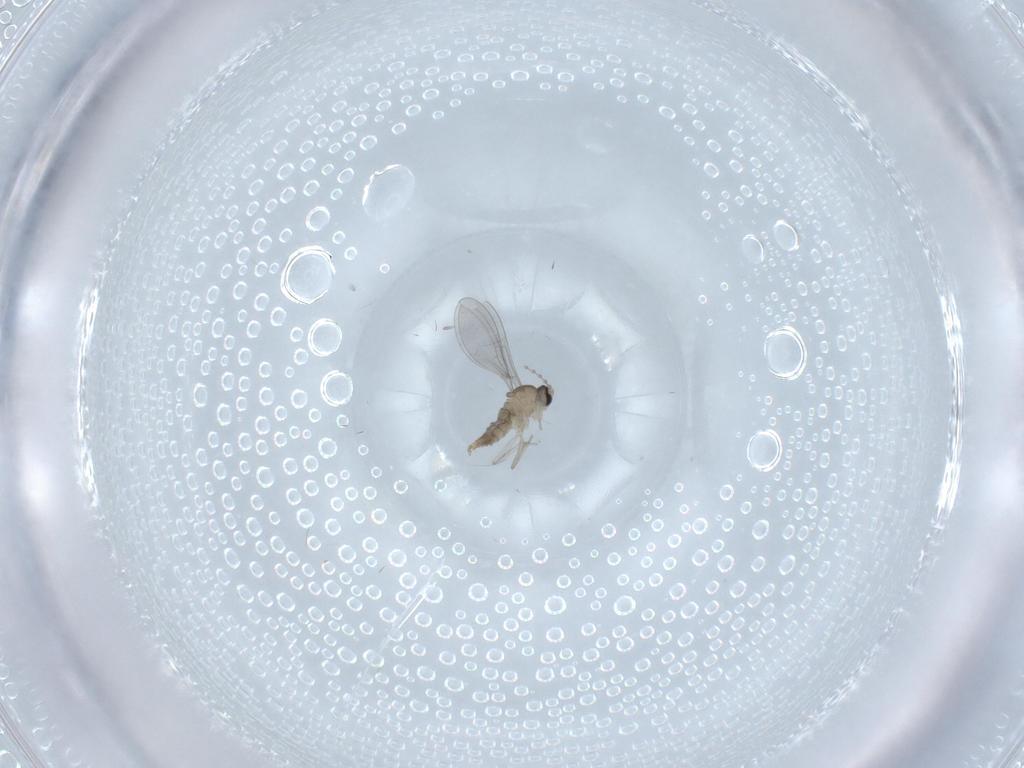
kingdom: Animalia
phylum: Arthropoda
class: Insecta
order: Diptera
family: Cecidomyiidae
